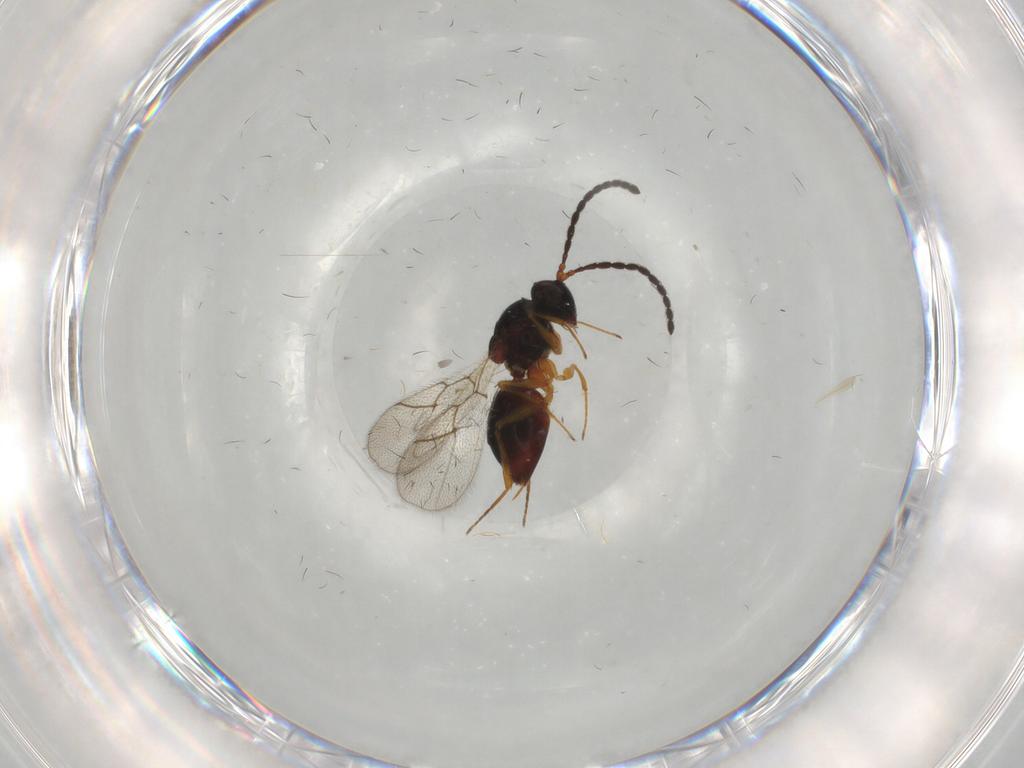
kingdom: Animalia
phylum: Arthropoda
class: Insecta
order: Hymenoptera
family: Figitidae
